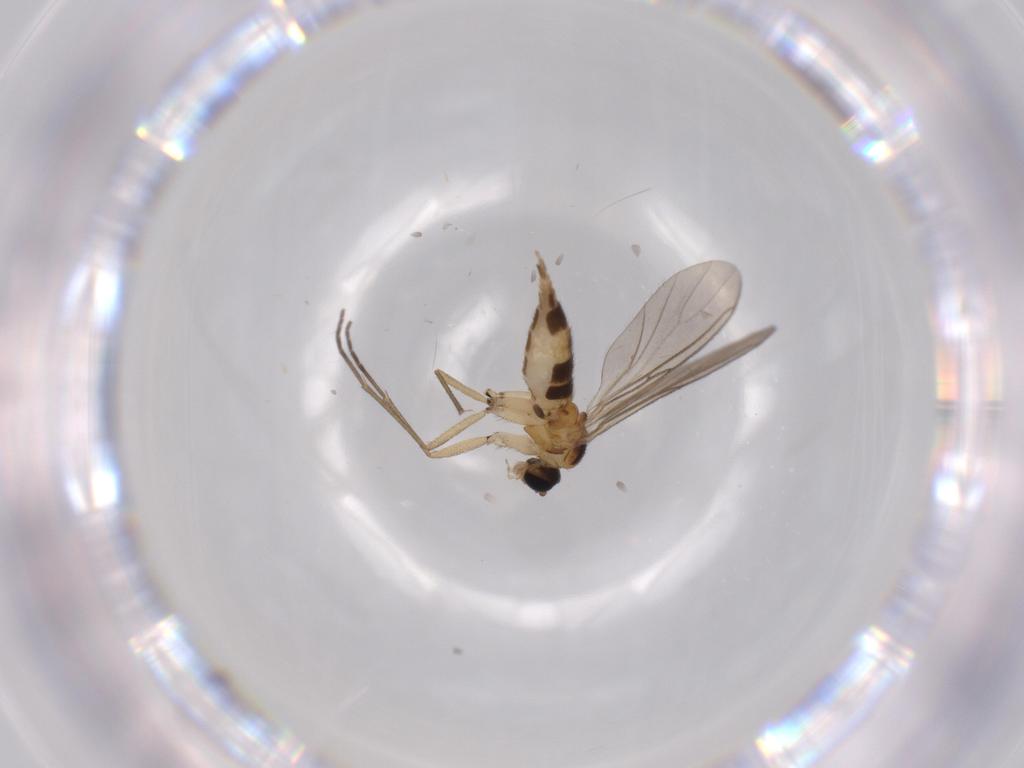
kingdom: Animalia
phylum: Arthropoda
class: Insecta
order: Diptera
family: Sciaridae
